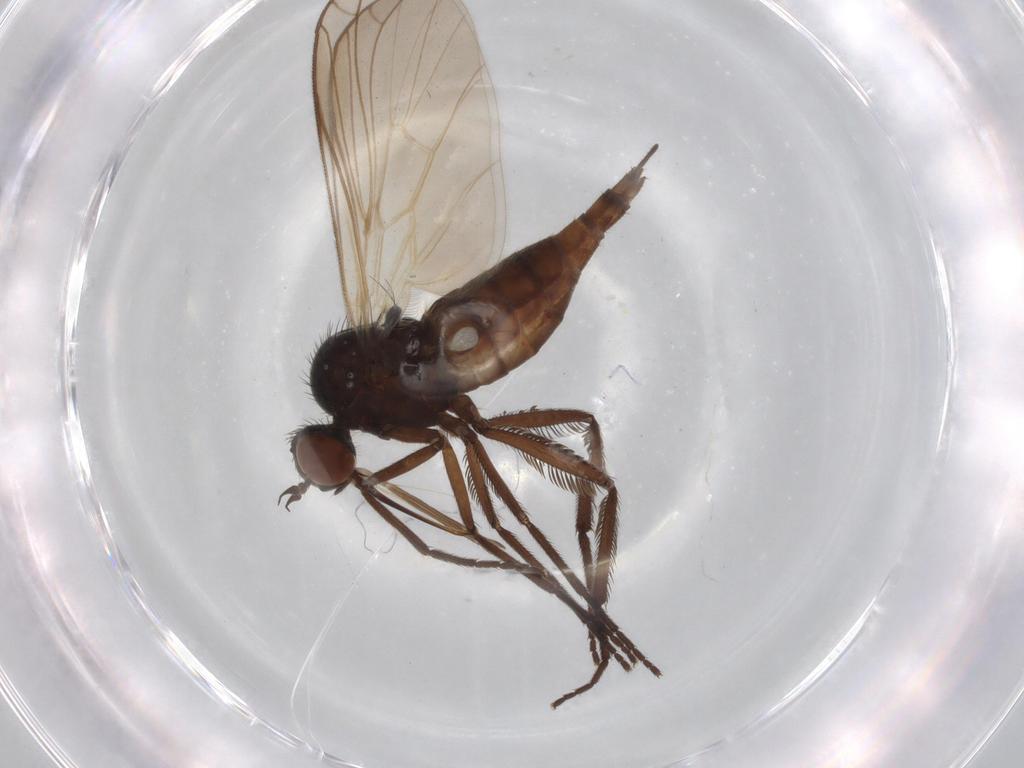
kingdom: Animalia
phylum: Arthropoda
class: Insecta
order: Diptera
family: Empididae
